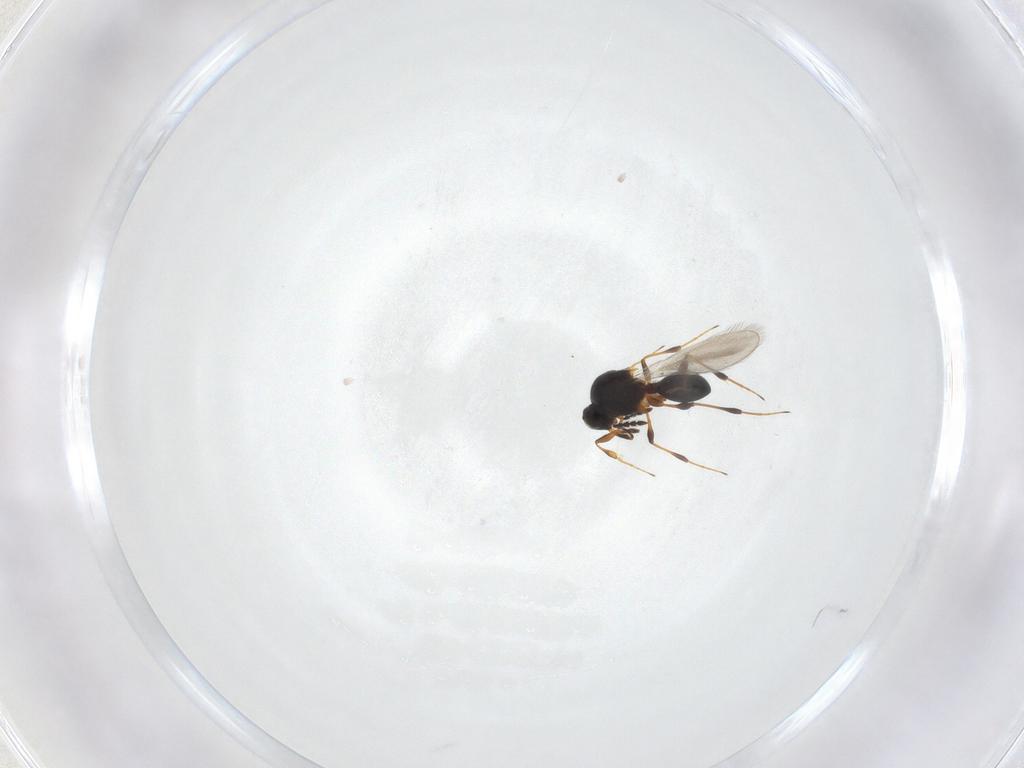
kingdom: Animalia
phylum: Arthropoda
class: Insecta
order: Hymenoptera
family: Platygastridae
